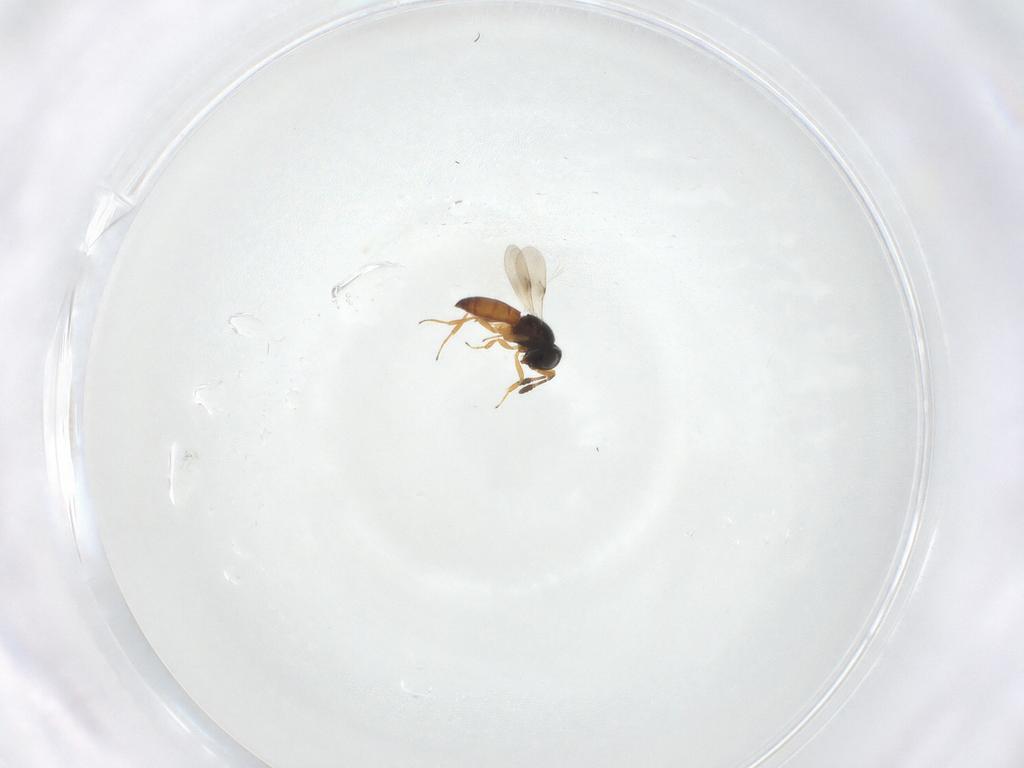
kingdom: Animalia
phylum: Arthropoda
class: Insecta
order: Hymenoptera
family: Scelionidae
